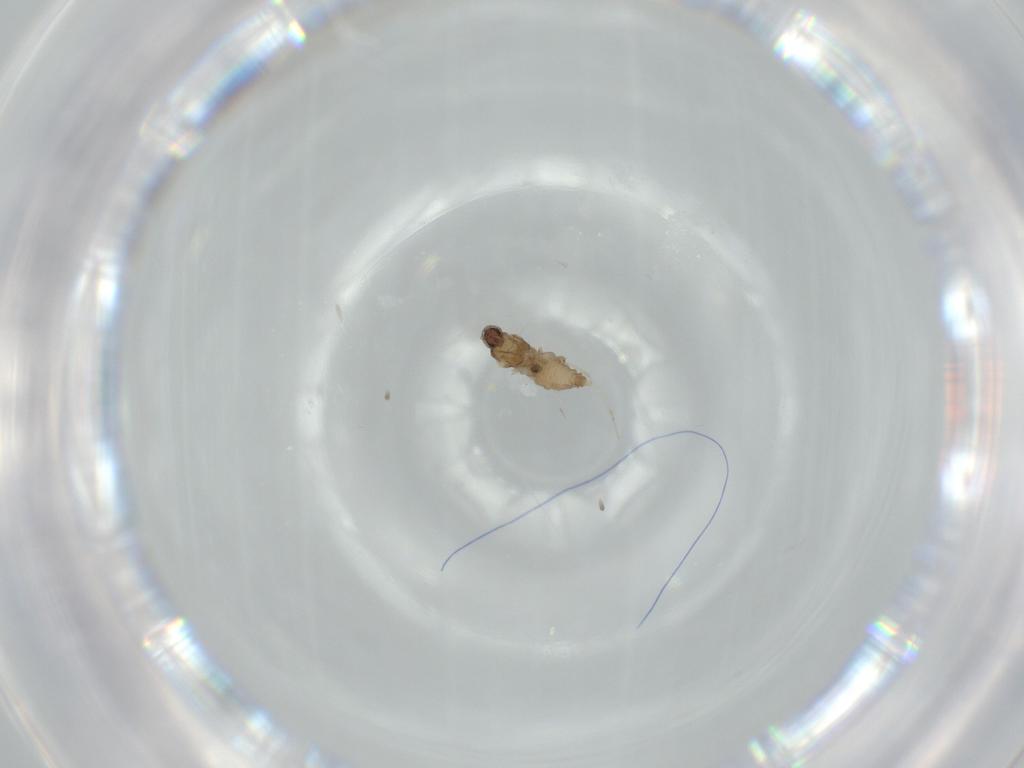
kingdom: Animalia
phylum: Arthropoda
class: Insecta
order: Diptera
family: Cecidomyiidae
